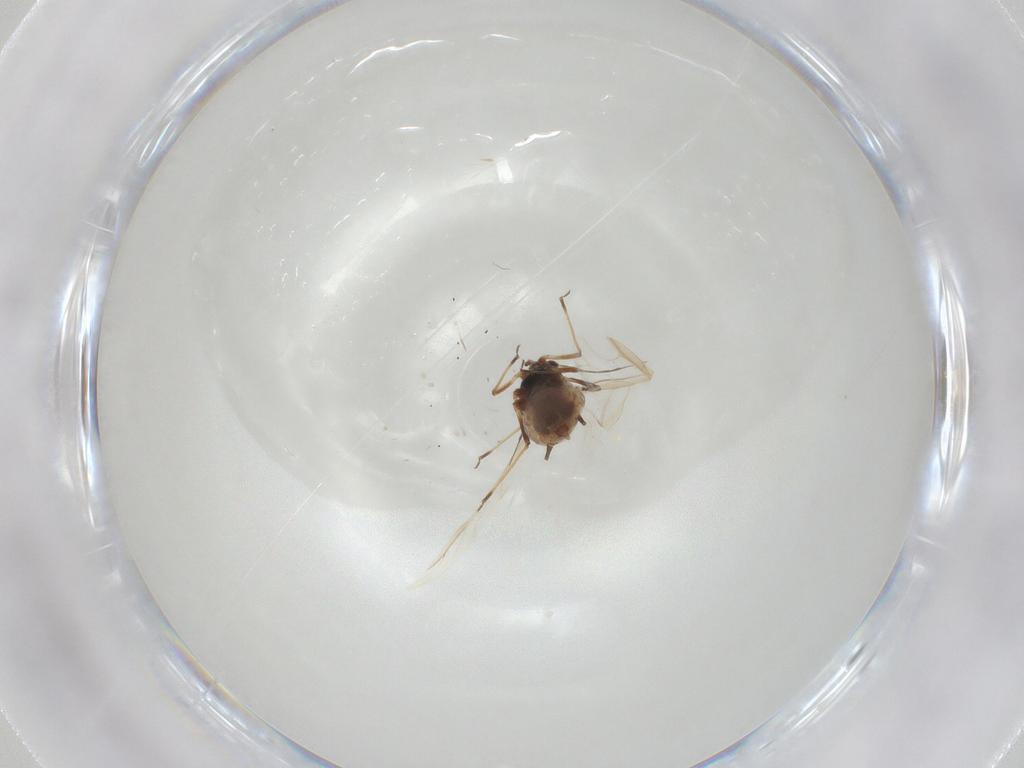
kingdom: Animalia
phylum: Arthropoda
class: Insecta
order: Hemiptera
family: Aphididae
